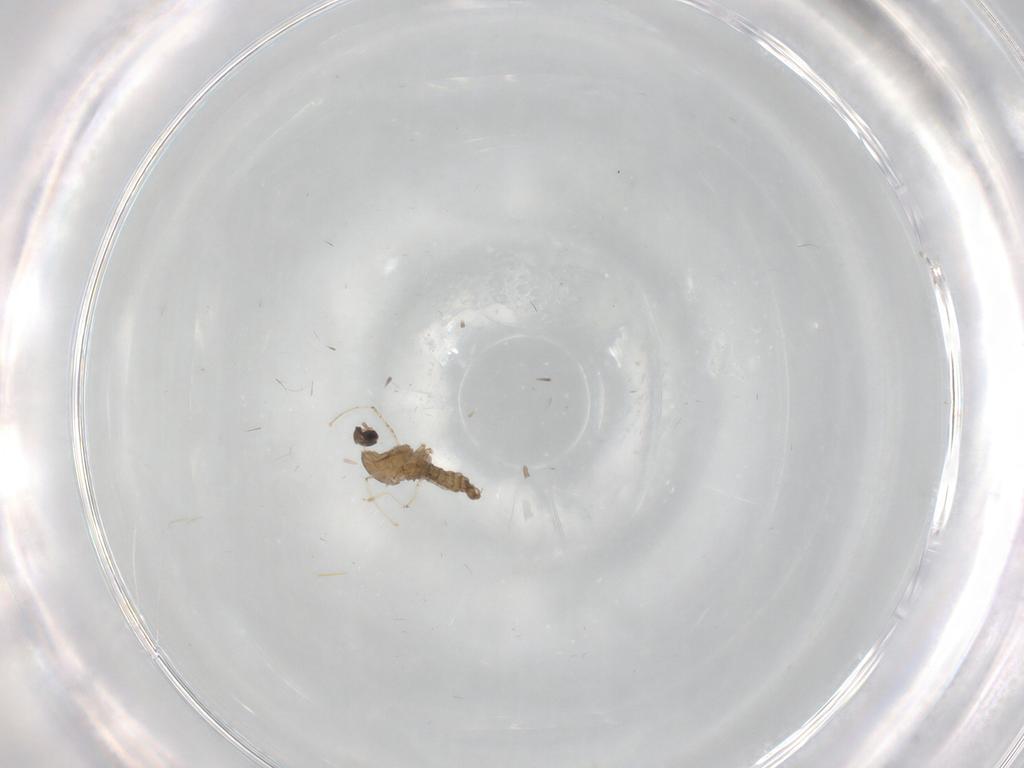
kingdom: Animalia
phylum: Arthropoda
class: Insecta
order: Diptera
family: Cecidomyiidae
